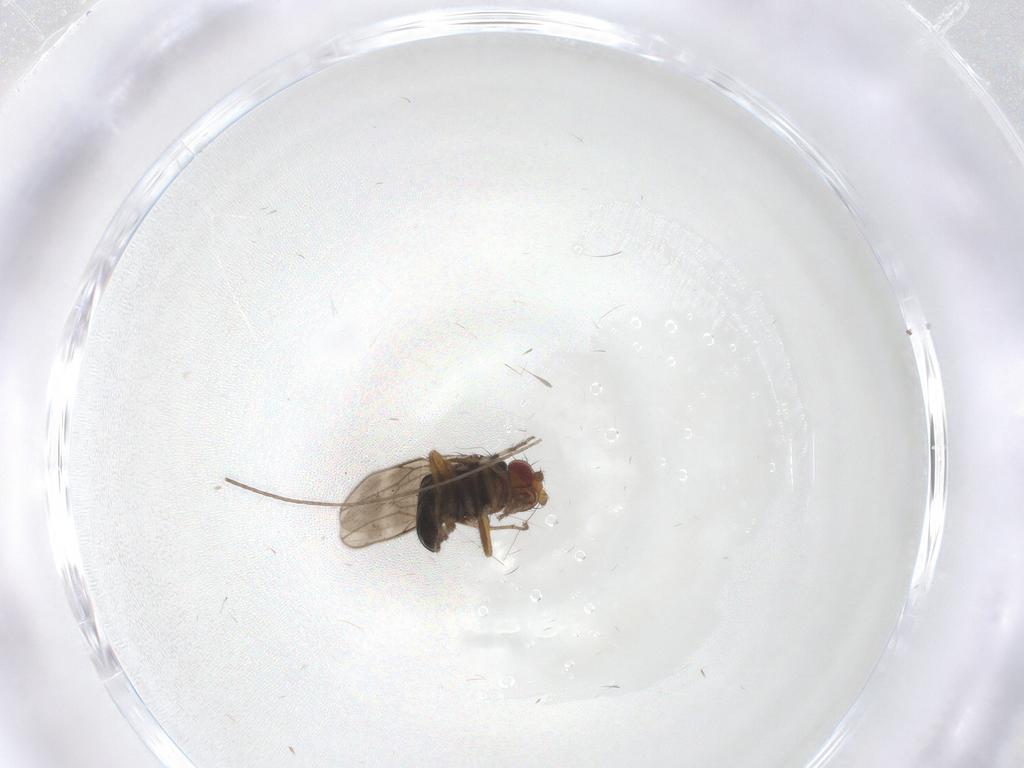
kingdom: Animalia
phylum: Arthropoda
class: Insecta
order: Diptera
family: Sphaeroceridae
